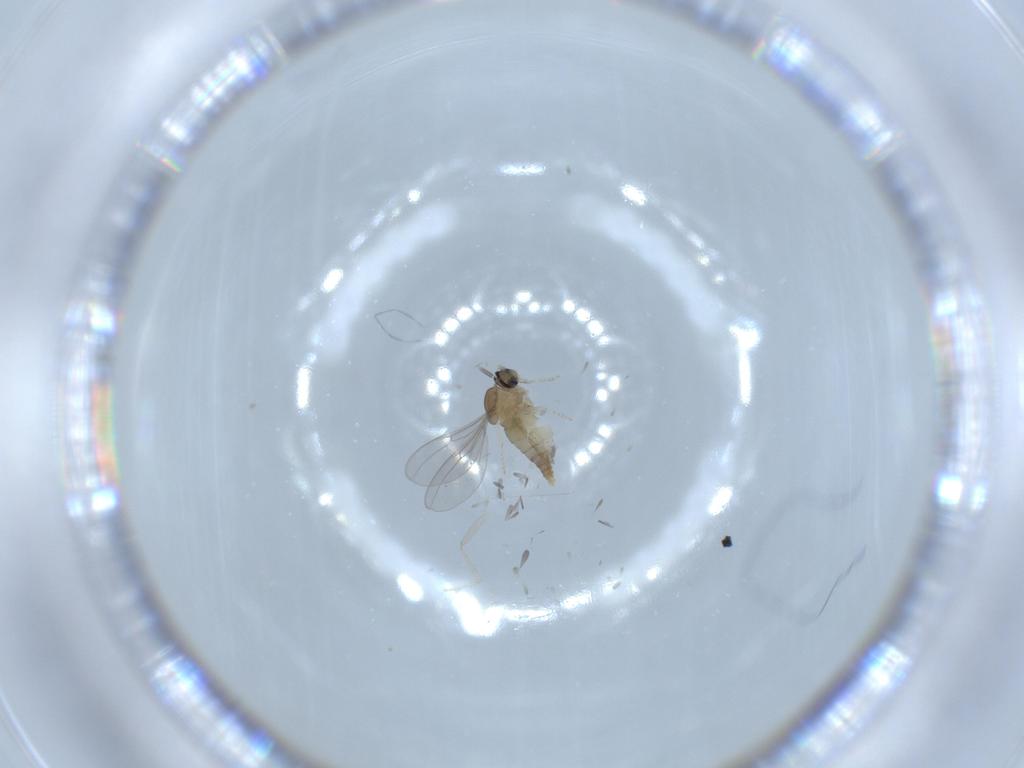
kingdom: Animalia
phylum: Arthropoda
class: Insecta
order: Diptera
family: Cecidomyiidae
